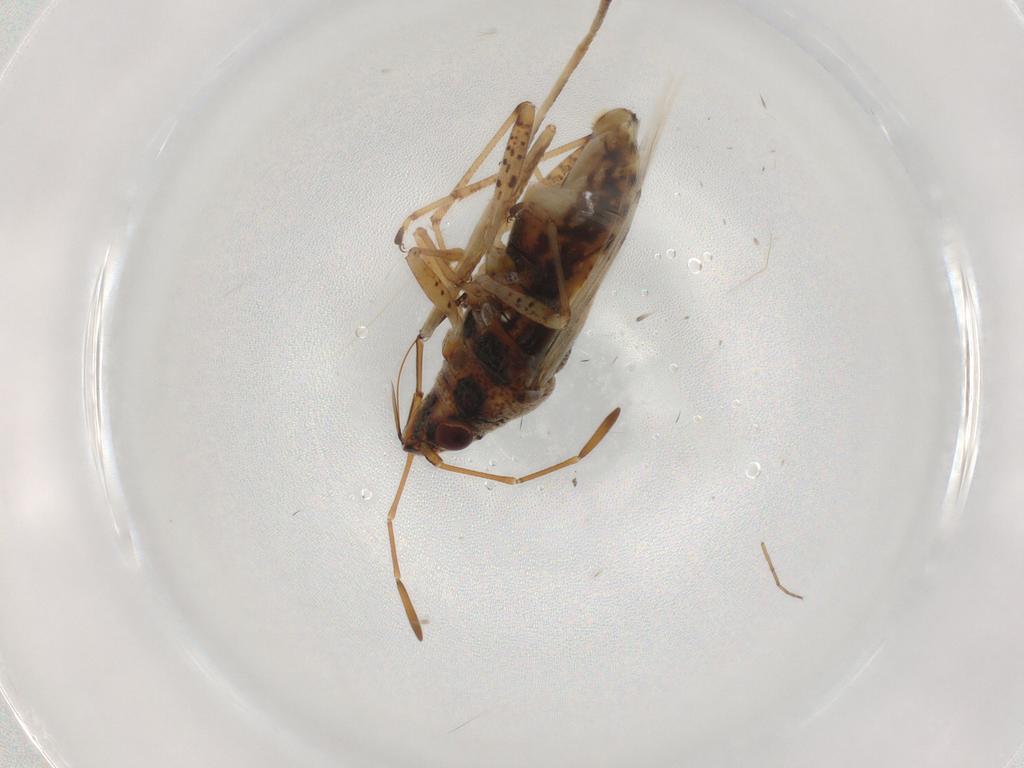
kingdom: Animalia
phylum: Arthropoda
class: Insecta
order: Hemiptera
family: Lygaeidae
